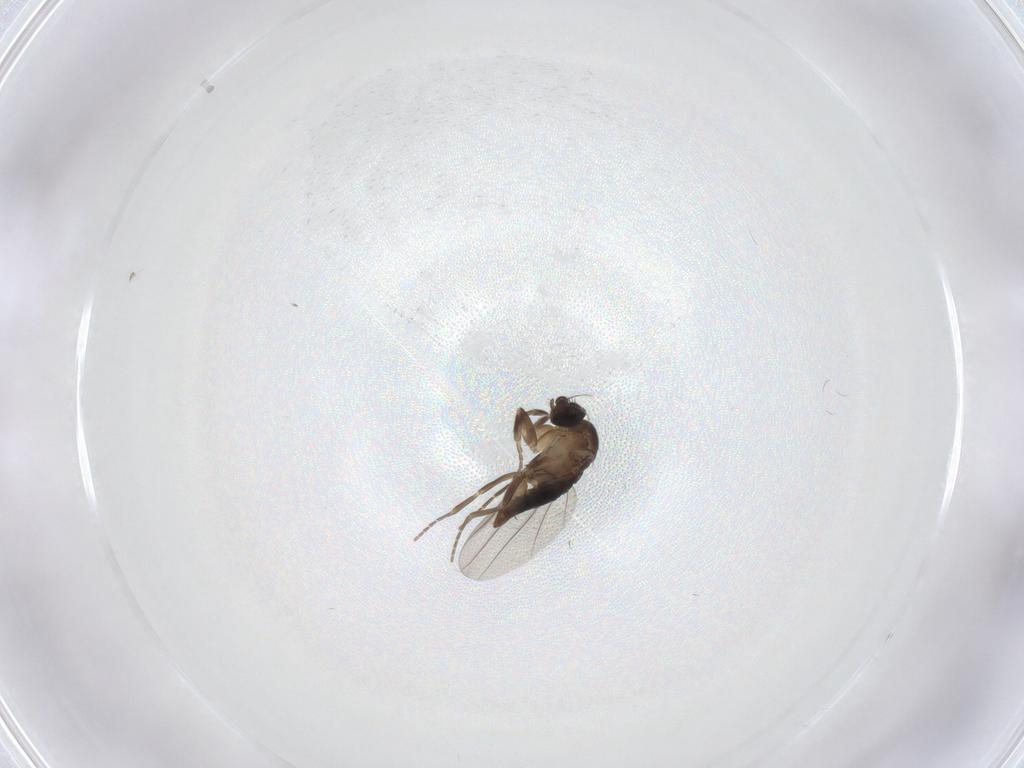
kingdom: Animalia
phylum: Arthropoda
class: Insecta
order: Diptera
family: Phoridae
